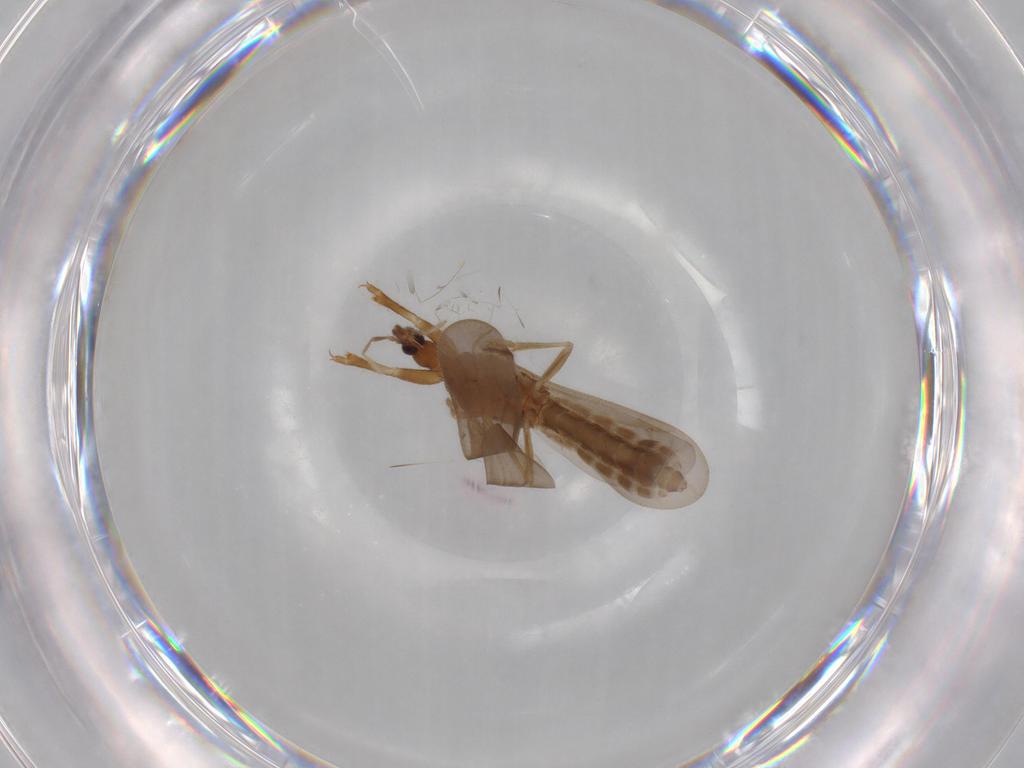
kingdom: Animalia
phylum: Arthropoda
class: Insecta
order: Hemiptera
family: Enicocephalidae
